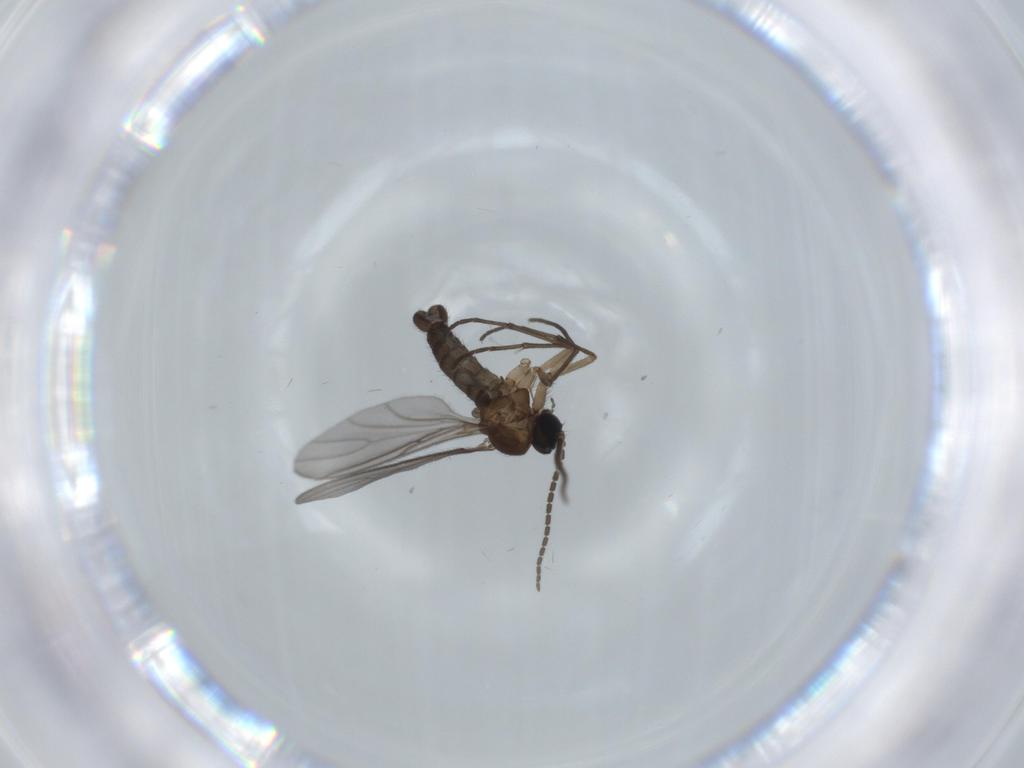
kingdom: Animalia
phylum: Arthropoda
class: Insecta
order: Diptera
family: Sciaridae
